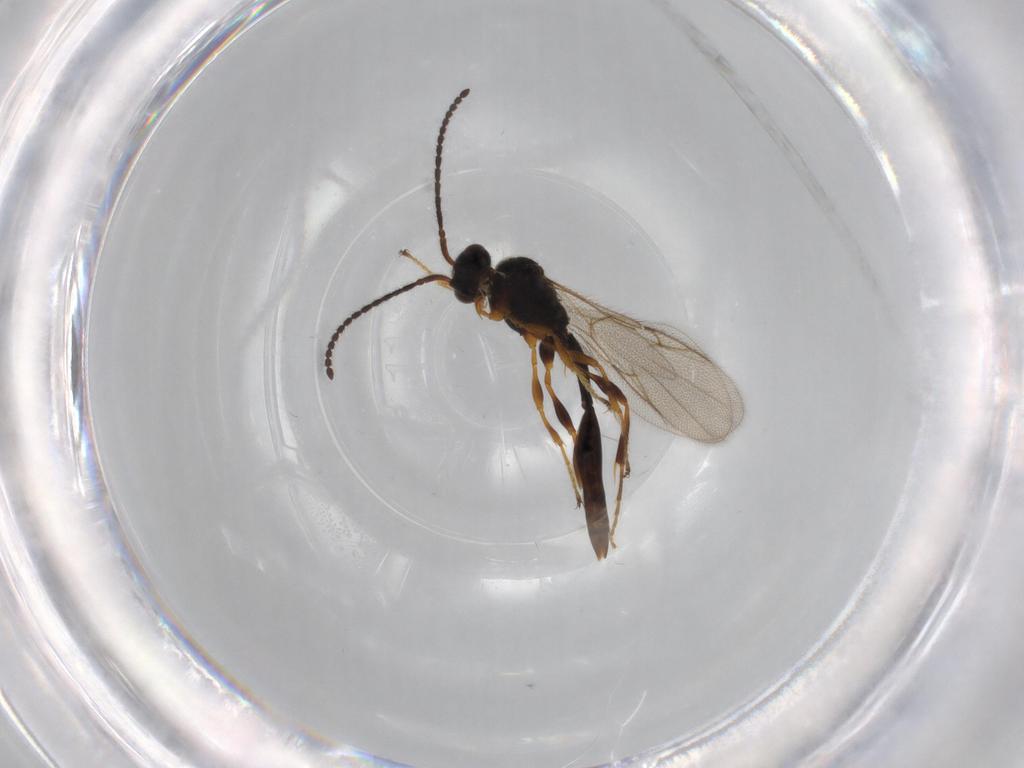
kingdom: Animalia
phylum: Arthropoda
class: Insecta
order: Hymenoptera
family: Diapriidae
